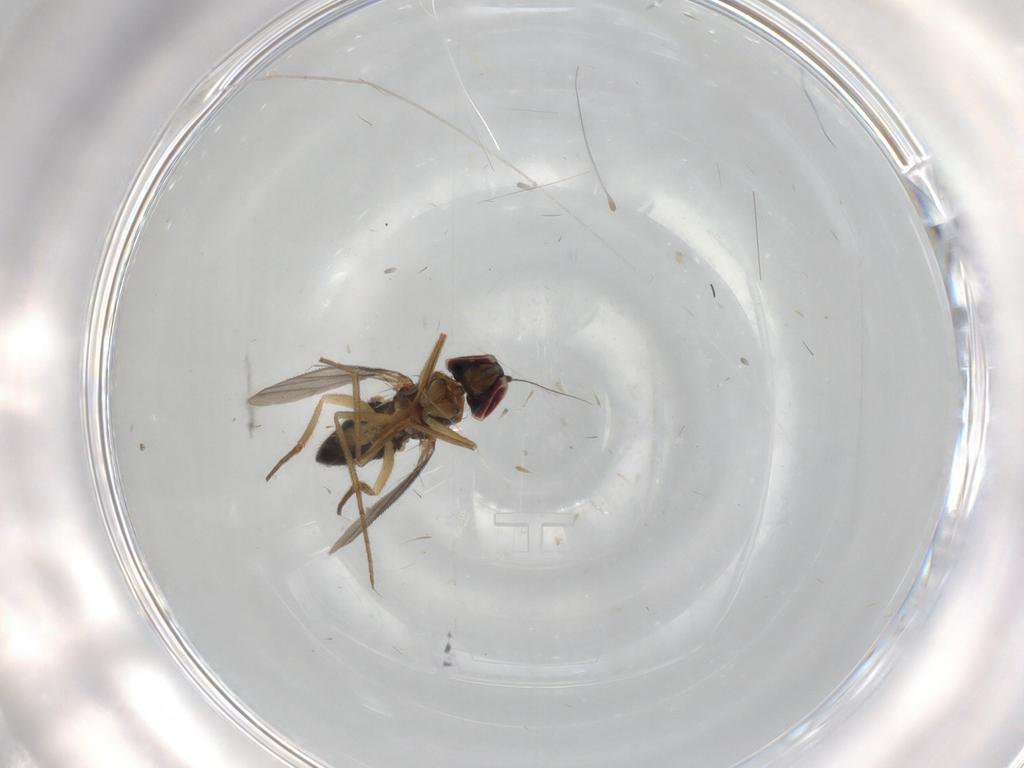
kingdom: Animalia
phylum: Arthropoda
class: Insecta
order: Diptera
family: Dolichopodidae
